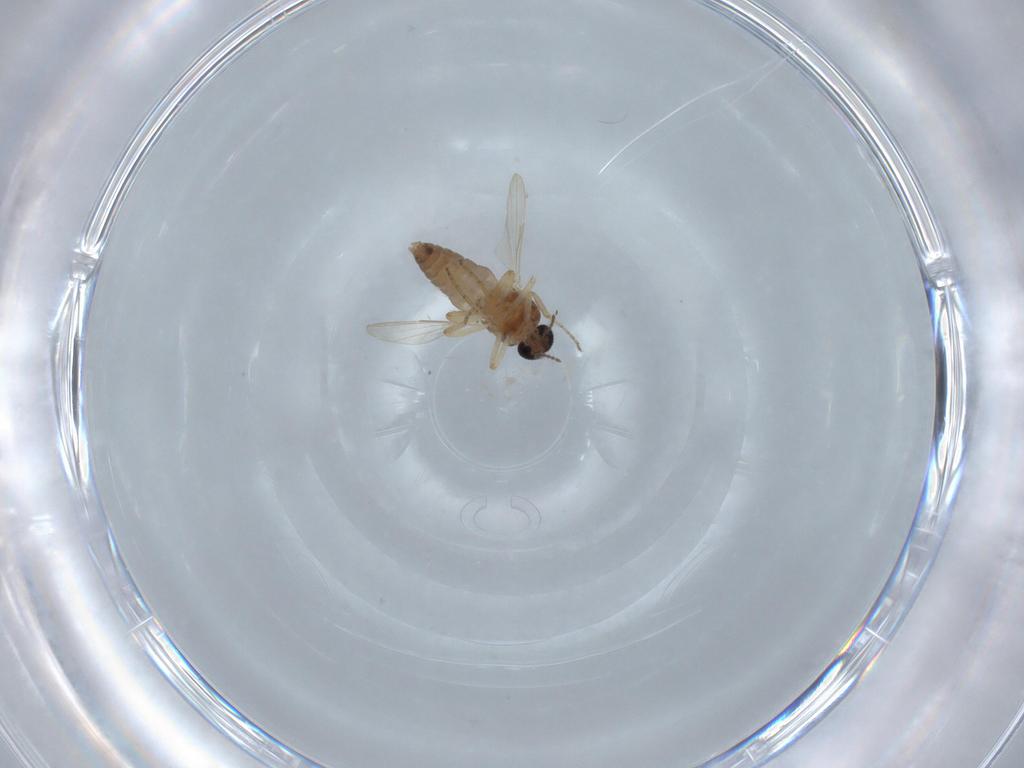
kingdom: Animalia
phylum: Arthropoda
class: Insecta
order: Diptera
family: Ceratopogonidae
